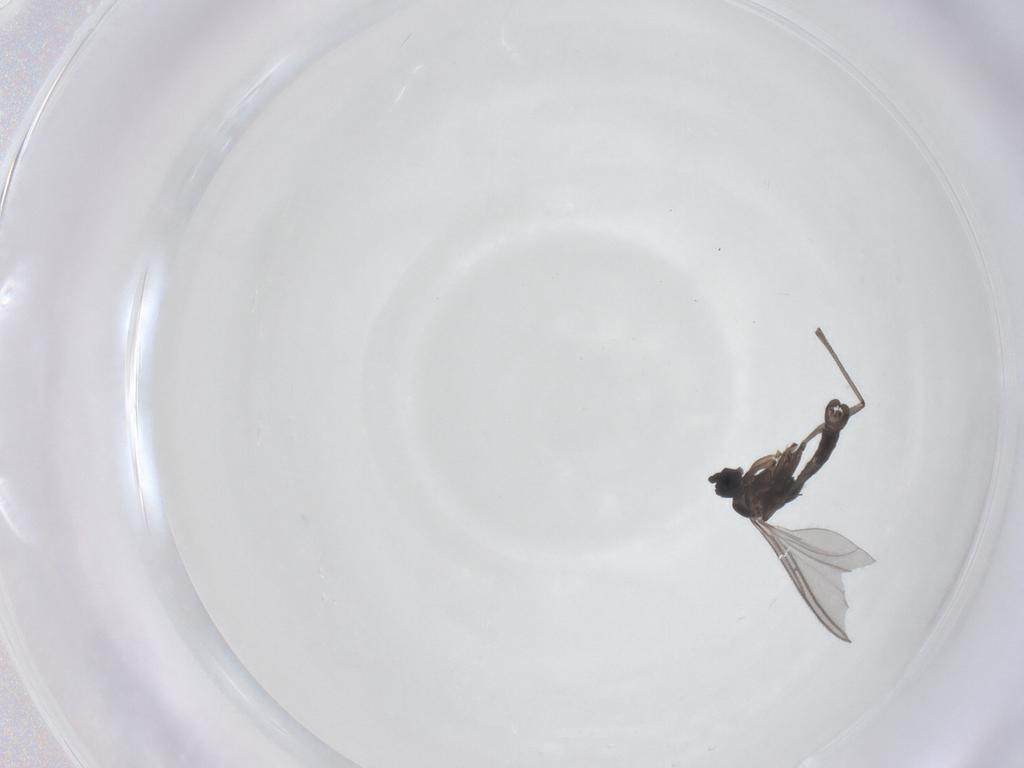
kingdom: Animalia
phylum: Arthropoda
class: Insecta
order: Diptera
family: Sciaridae
